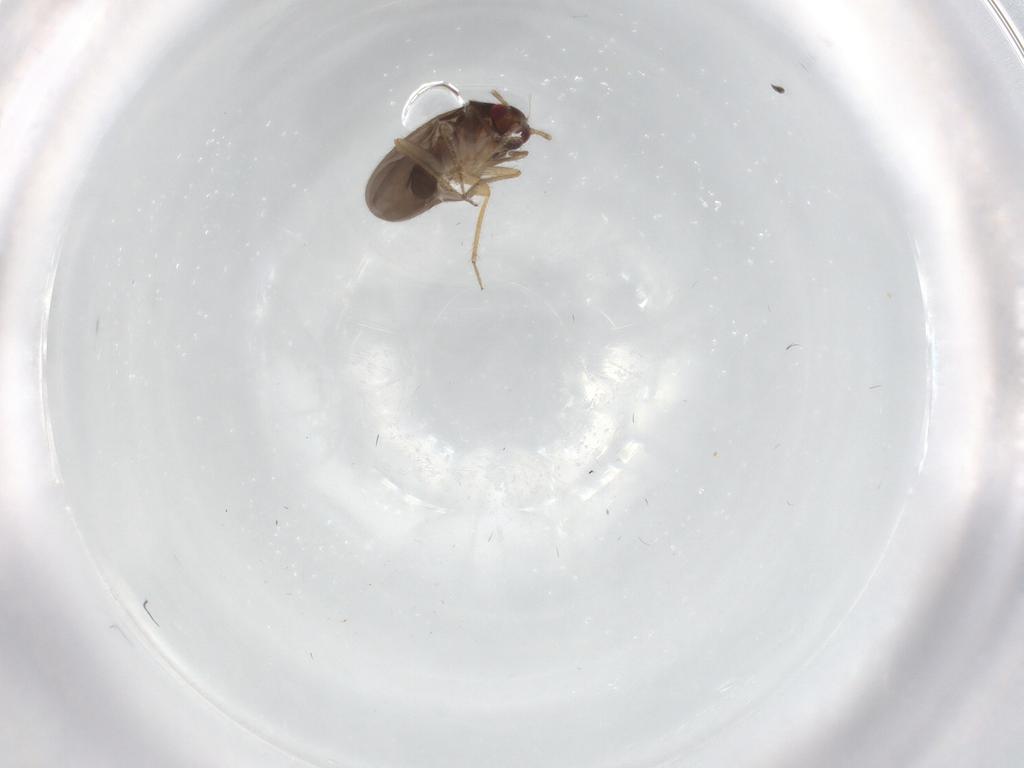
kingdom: Animalia
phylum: Arthropoda
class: Insecta
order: Hemiptera
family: Ceratocombidae
